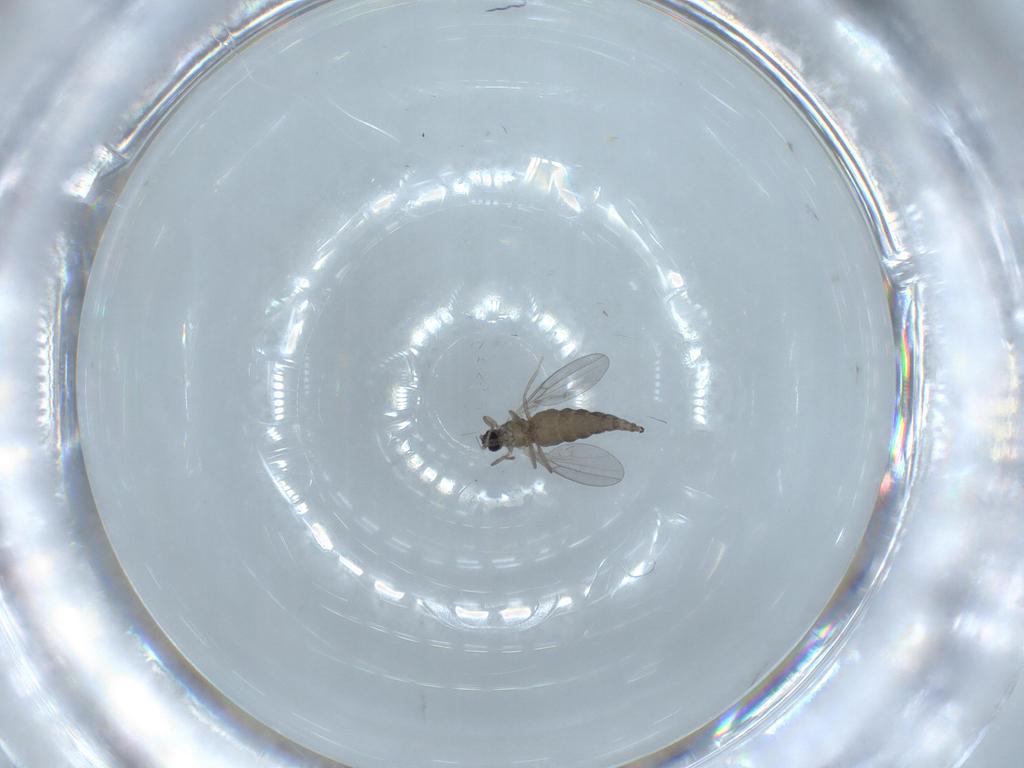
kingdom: Animalia
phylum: Arthropoda
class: Insecta
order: Diptera
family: Cecidomyiidae
